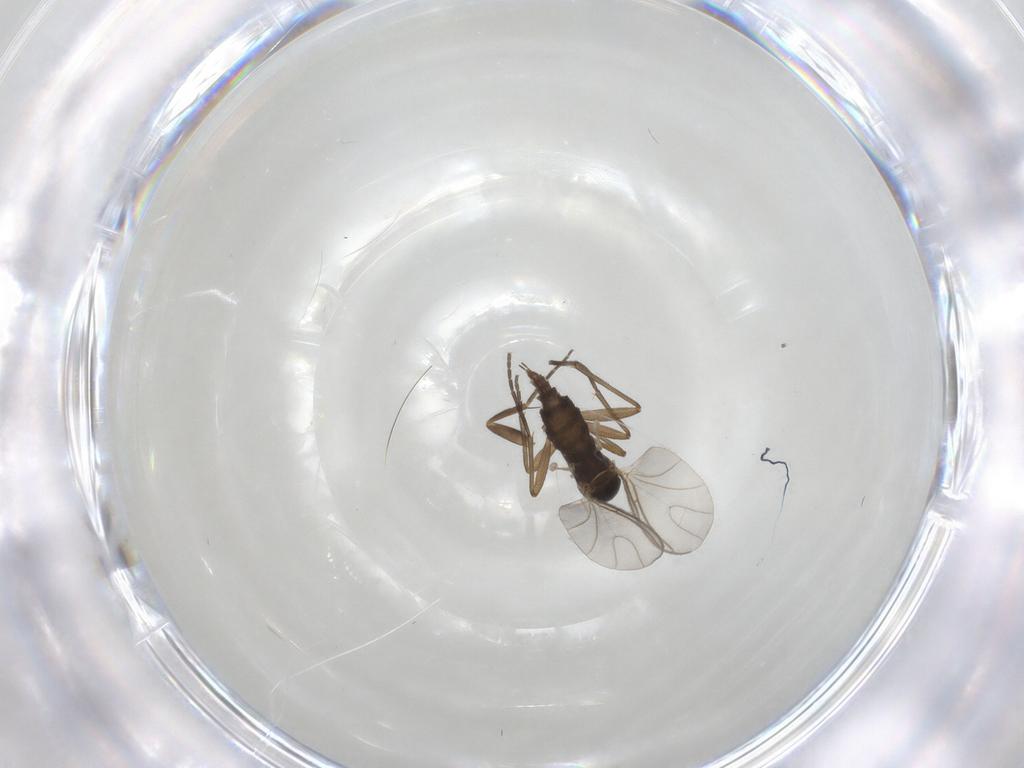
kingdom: Animalia
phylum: Arthropoda
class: Insecta
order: Diptera
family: Phoridae
